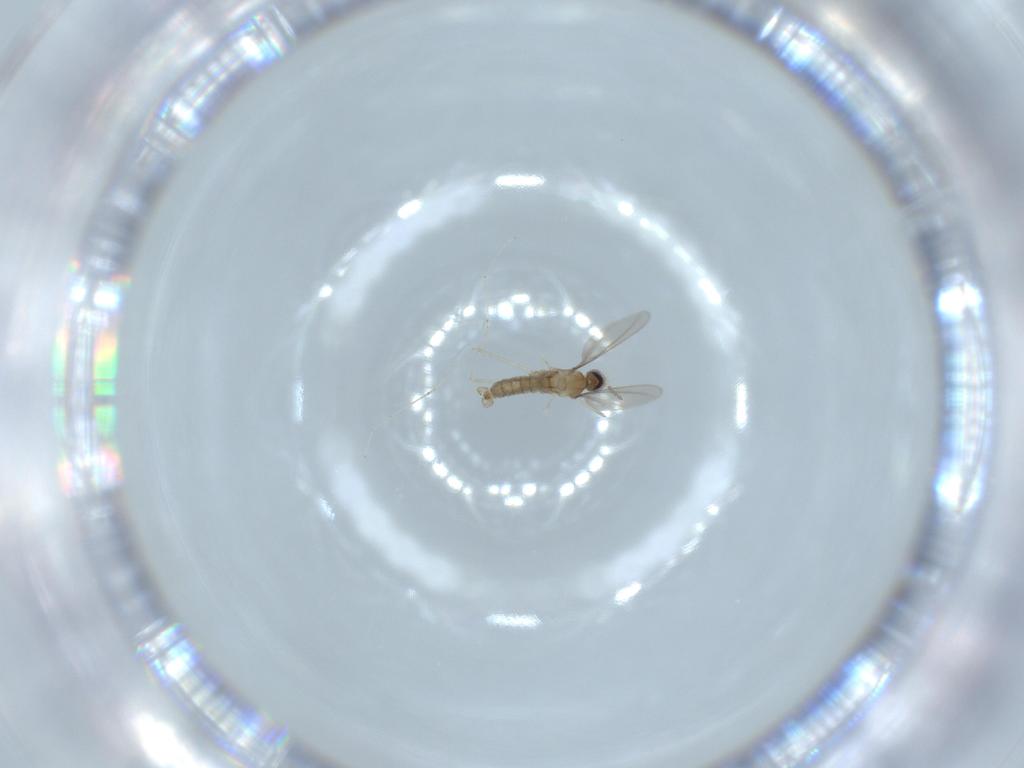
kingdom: Animalia
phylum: Arthropoda
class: Insecta
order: Diptera
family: Cecidomyiidae
